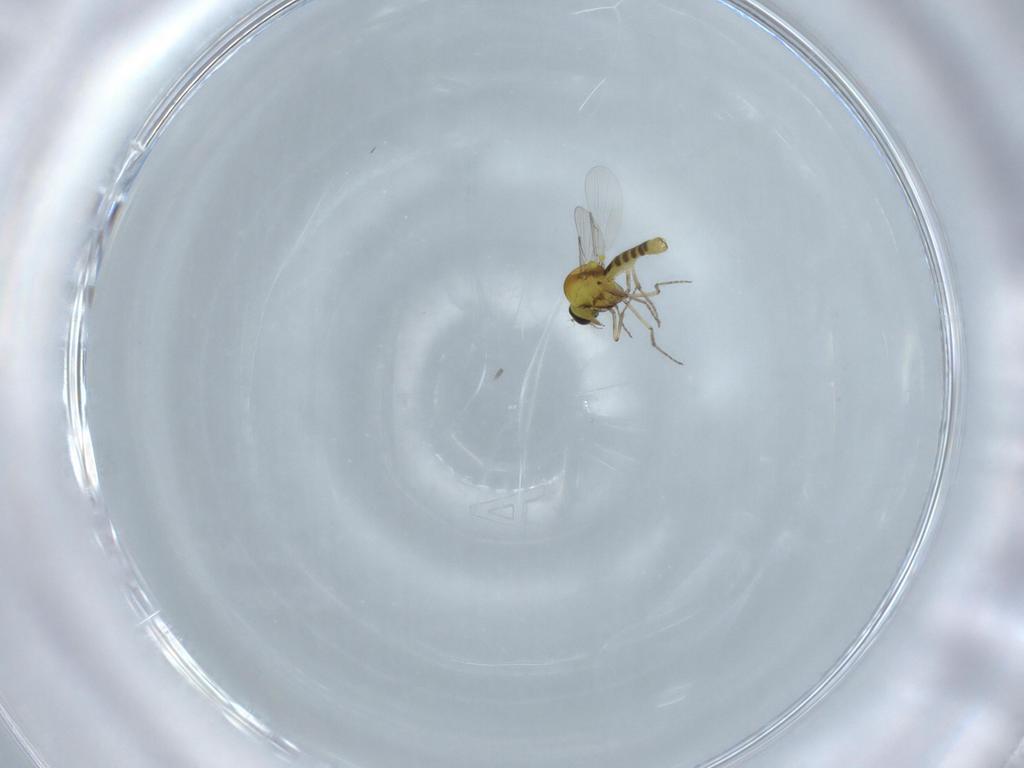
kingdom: Animalia
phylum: Arthropoda
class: Insecta
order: Diptera
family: Ceratopogonidae
